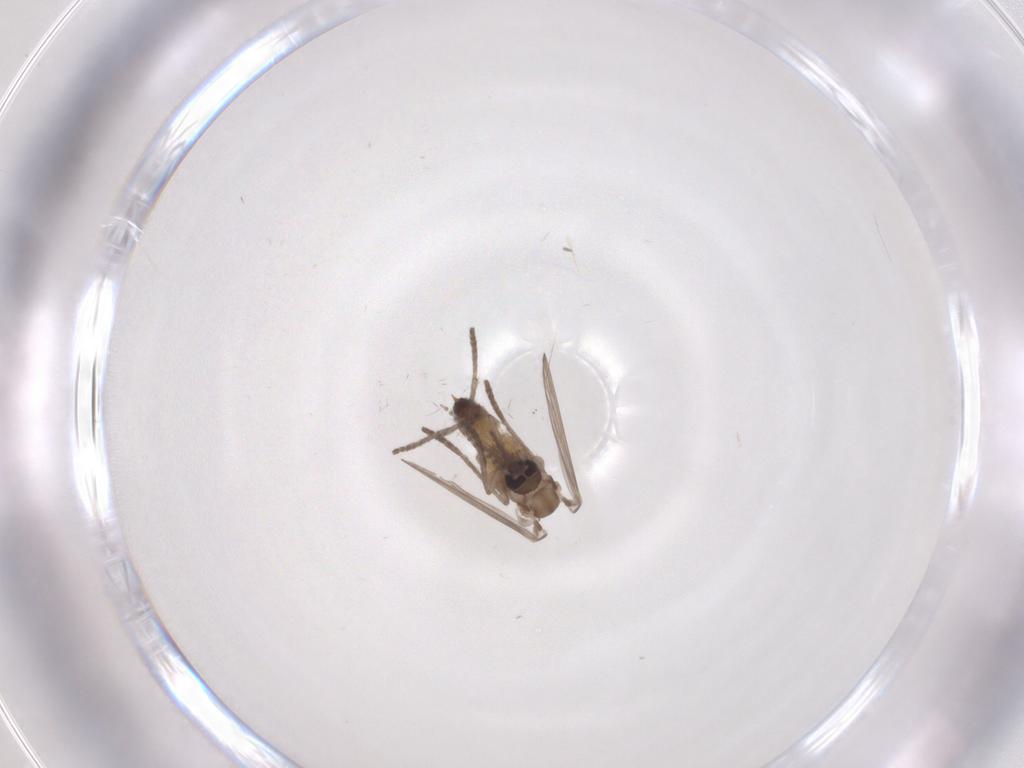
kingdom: Animalia
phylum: Arthropoda
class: Insecta
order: Diptera
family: Psychodidae
